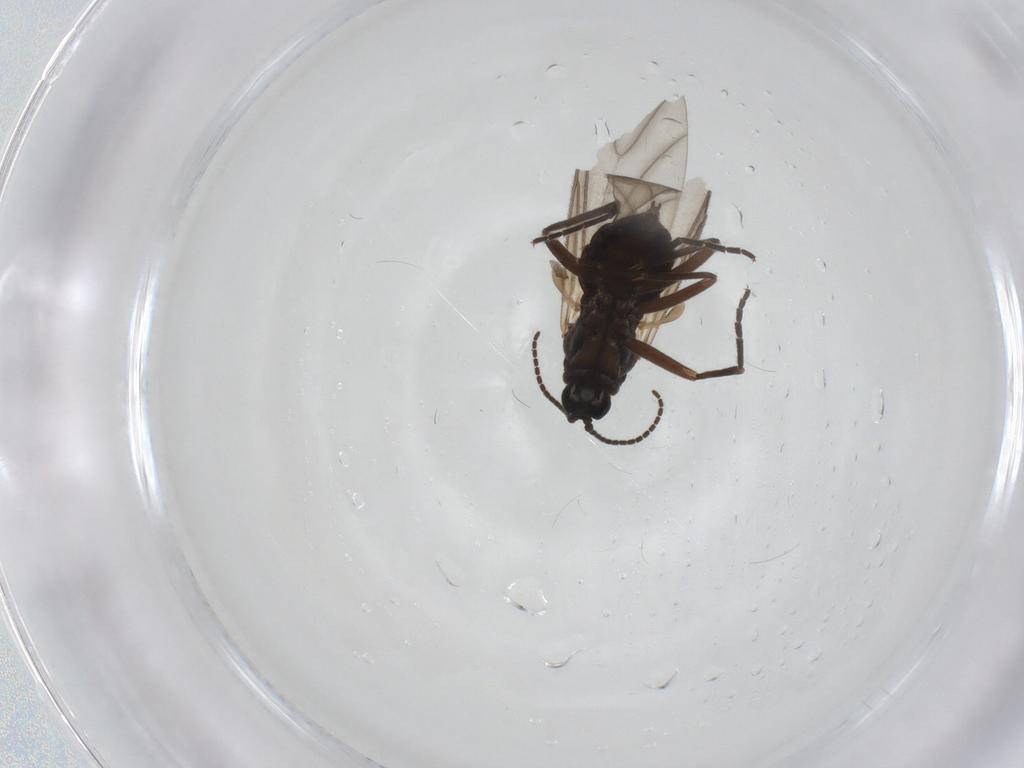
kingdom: Animalia
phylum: Arthropoda
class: Insecta
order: Diptera
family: Sciaridae
